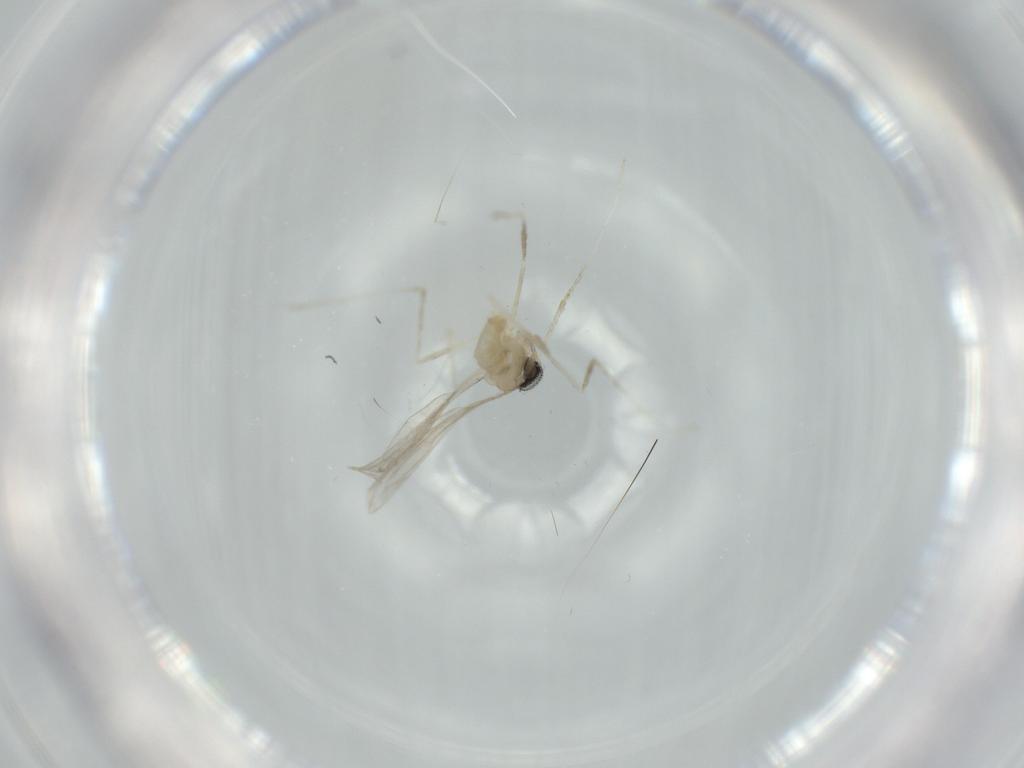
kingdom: Animalia
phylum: Arthropoda
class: Insecta
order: Diptera
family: Cecidomyiidae
